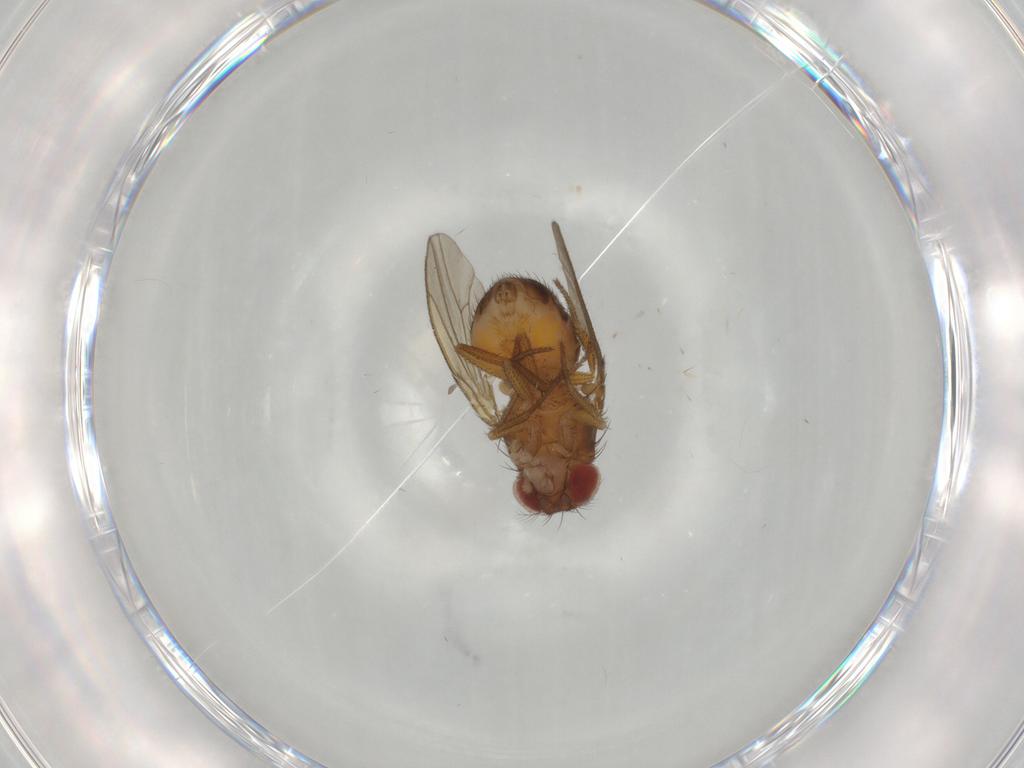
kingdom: Animalia
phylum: Arthropoda
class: Insecta
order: Diptera
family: Drosophilidae
